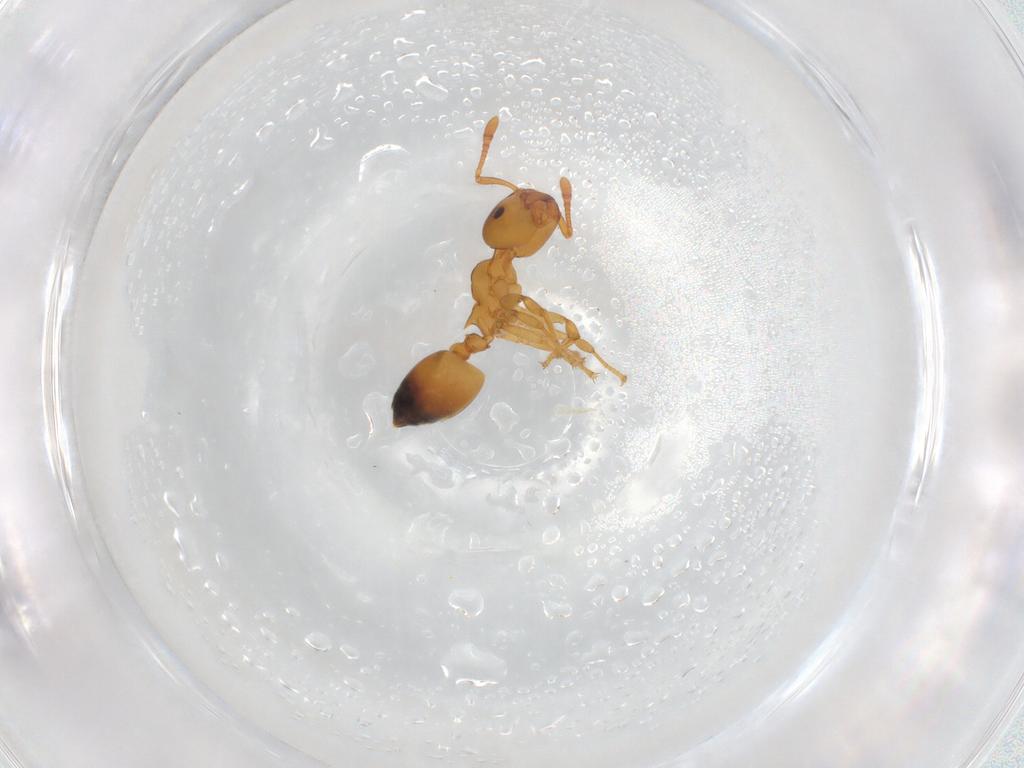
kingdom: Animalia
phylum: Arthropoda
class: Insecta
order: Hymenoptera
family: Formicidae
